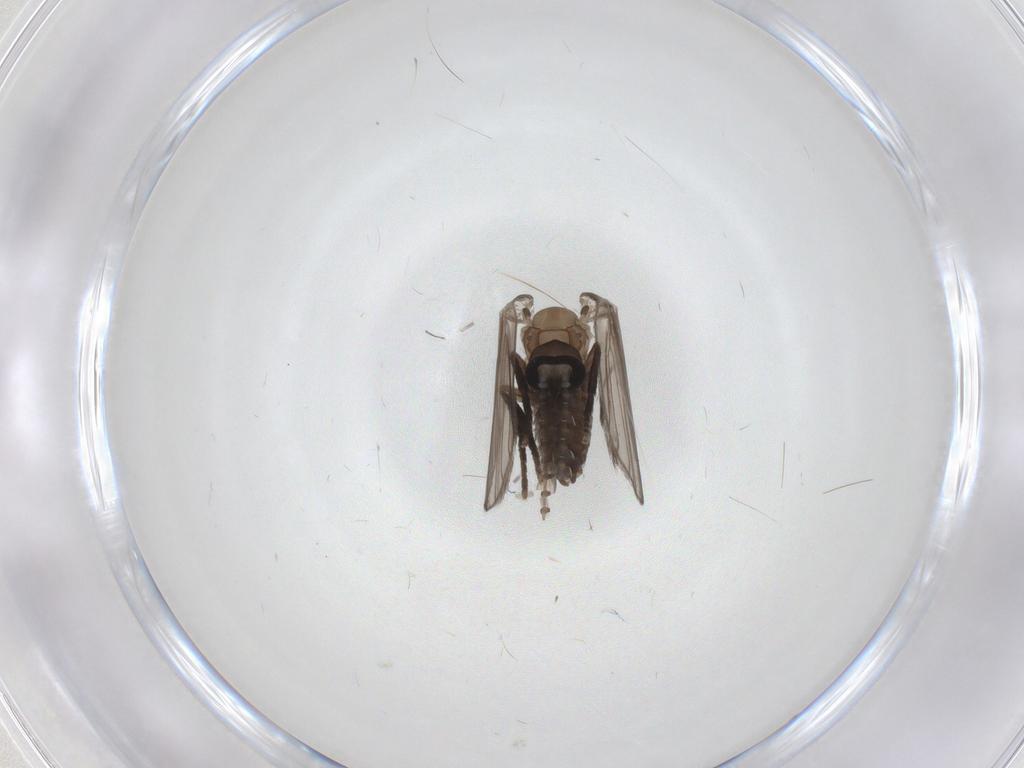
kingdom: Animalia
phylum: Arthropoda
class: Insecta
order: Diptera
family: Psychodidae
